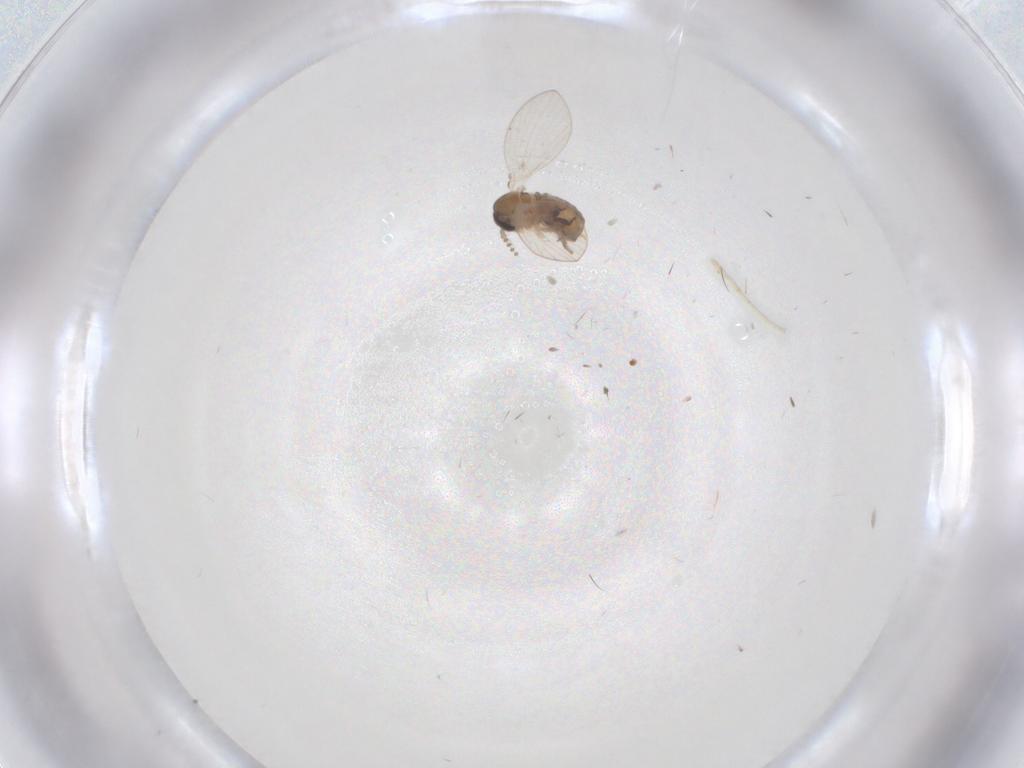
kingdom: Animalia
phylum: Arthropoda
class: Insecta
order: Diptera
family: Psychodidae
